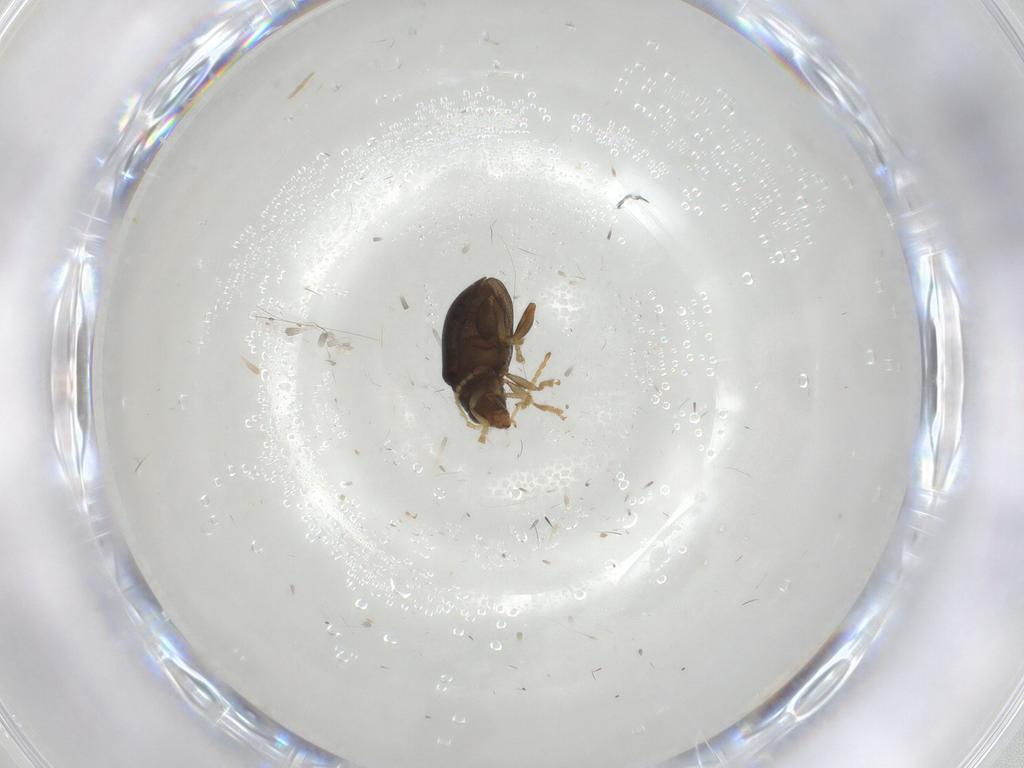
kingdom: Animalia
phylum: Arthropoda
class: Insecta
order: Coleoptera
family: Chrysomelidae
